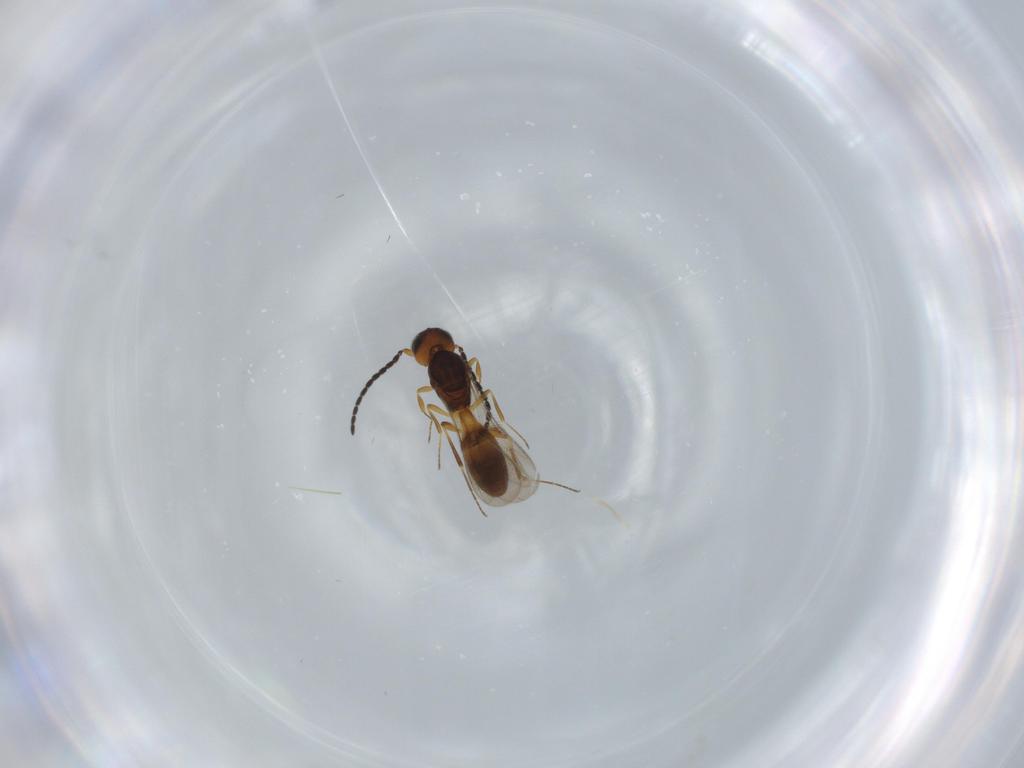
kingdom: Animalia
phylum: Arthropoda
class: Insecta
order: Hymenoptera
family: Scelionidae
